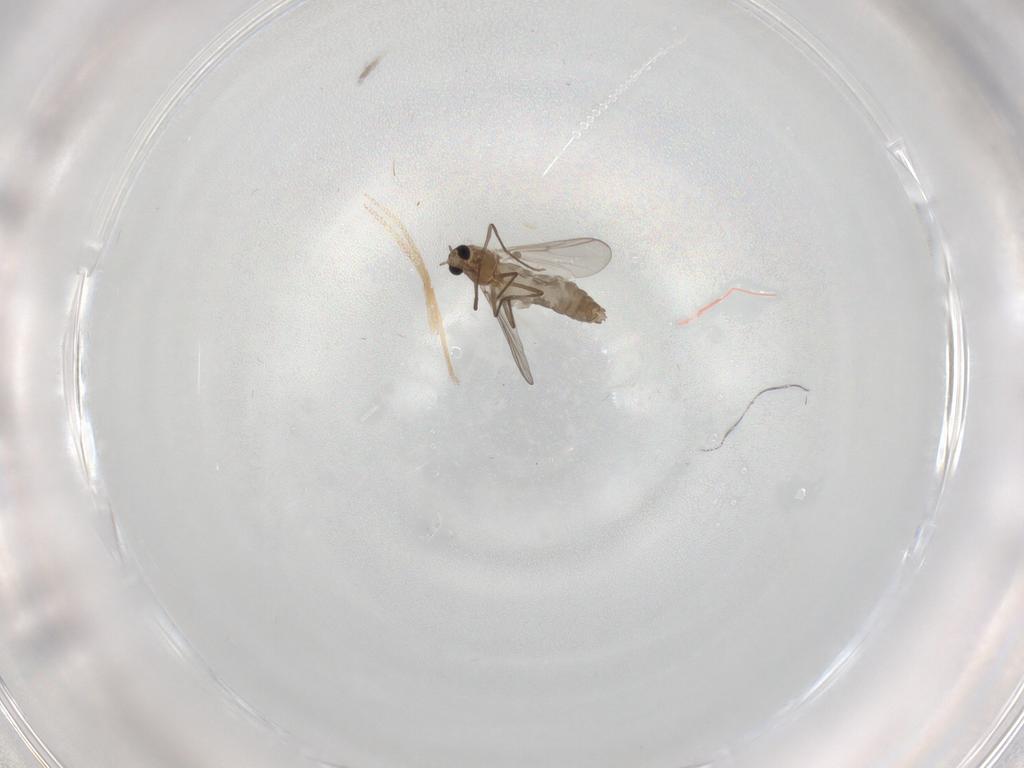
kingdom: Animalia
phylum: Arthropoda
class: Insecta
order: Diptera
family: Chironomidae
